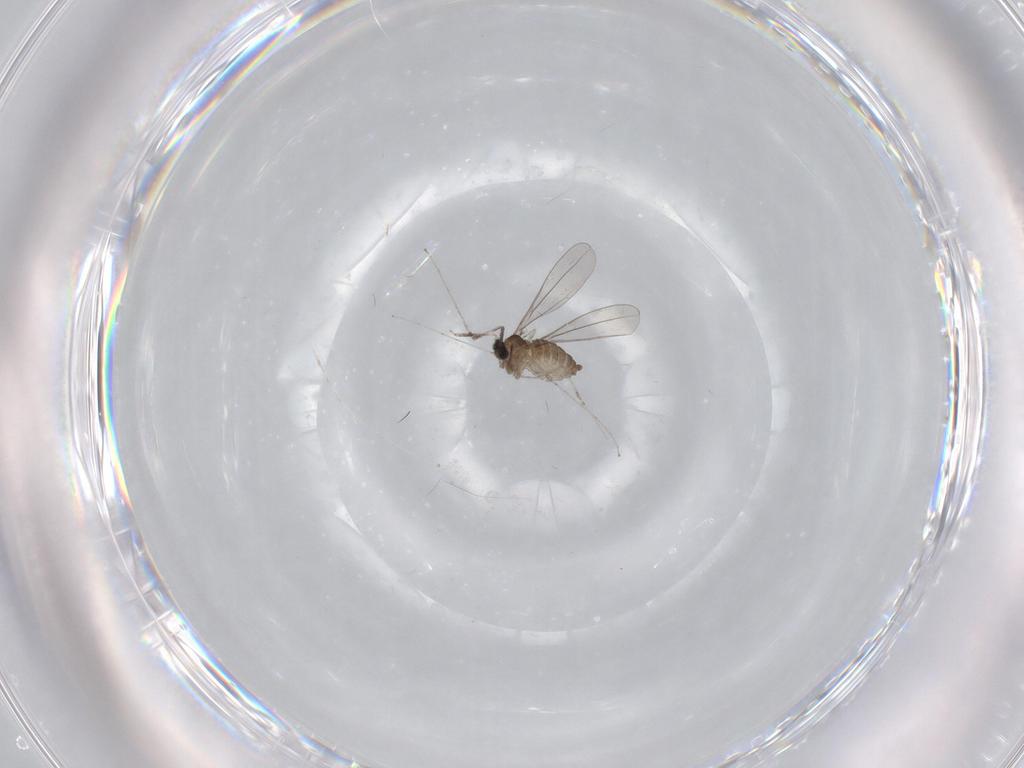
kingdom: Animalia
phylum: Arthropoda
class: Insecta
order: Diptera
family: Cecidomyiidae
